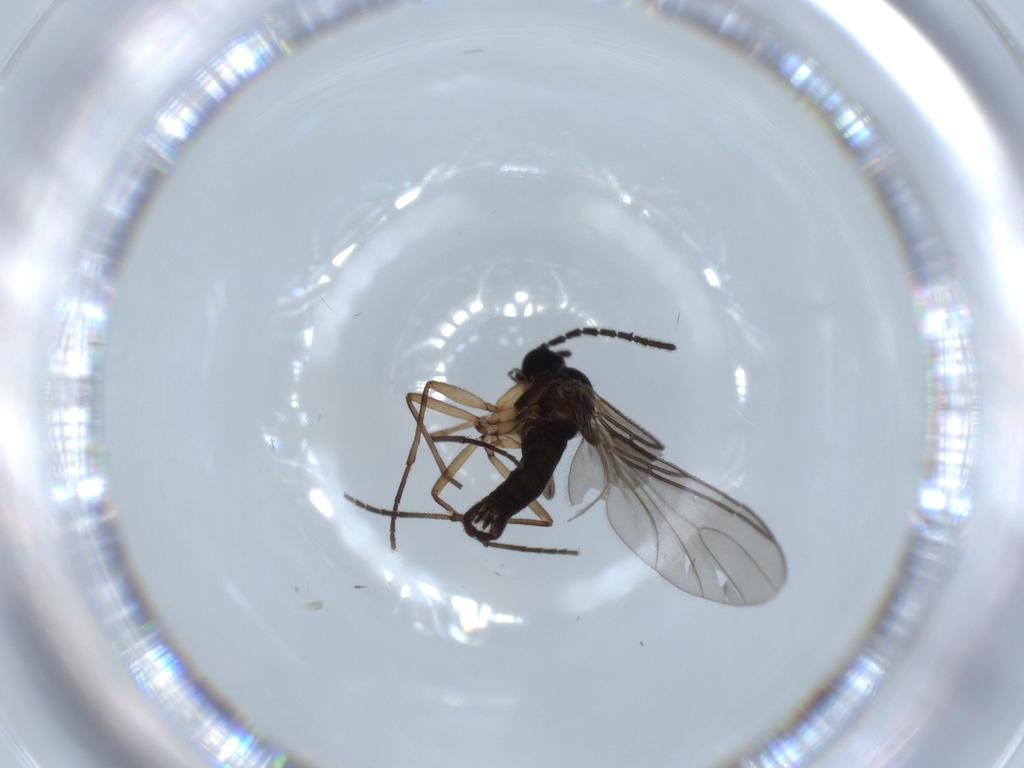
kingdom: Animalia
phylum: Arthropoda
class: Insecta
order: Diptera
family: Sciaridae
